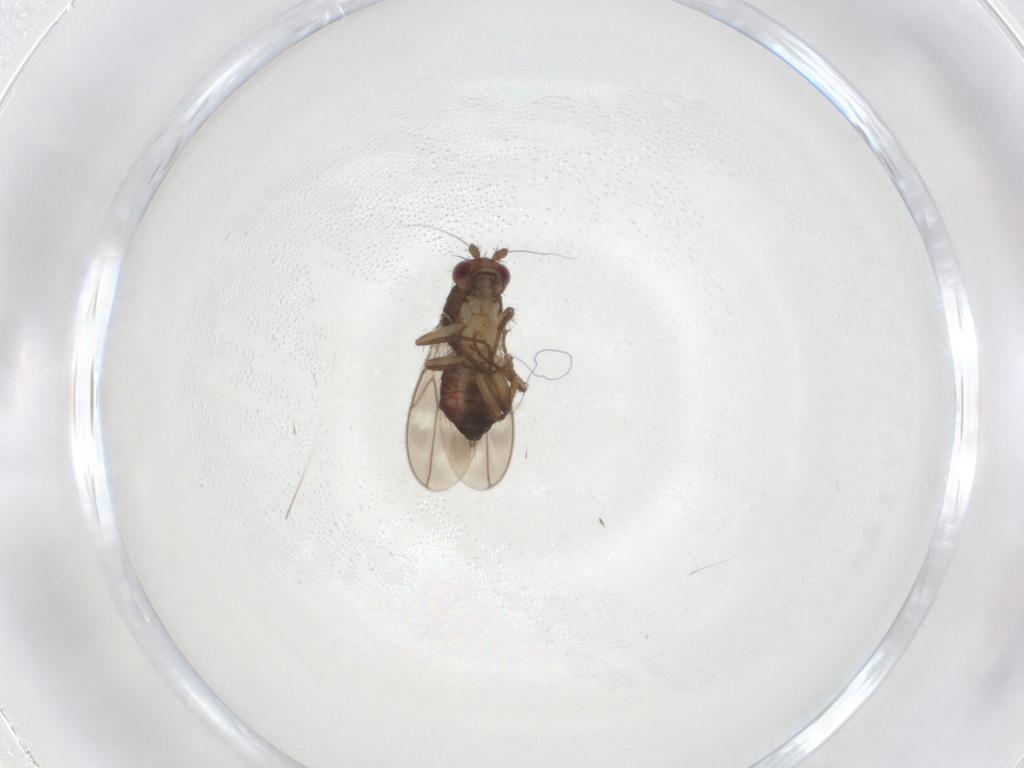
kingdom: Animalia
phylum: Arthropoda
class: Insecta
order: Diptera
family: Sphaeroceridae
